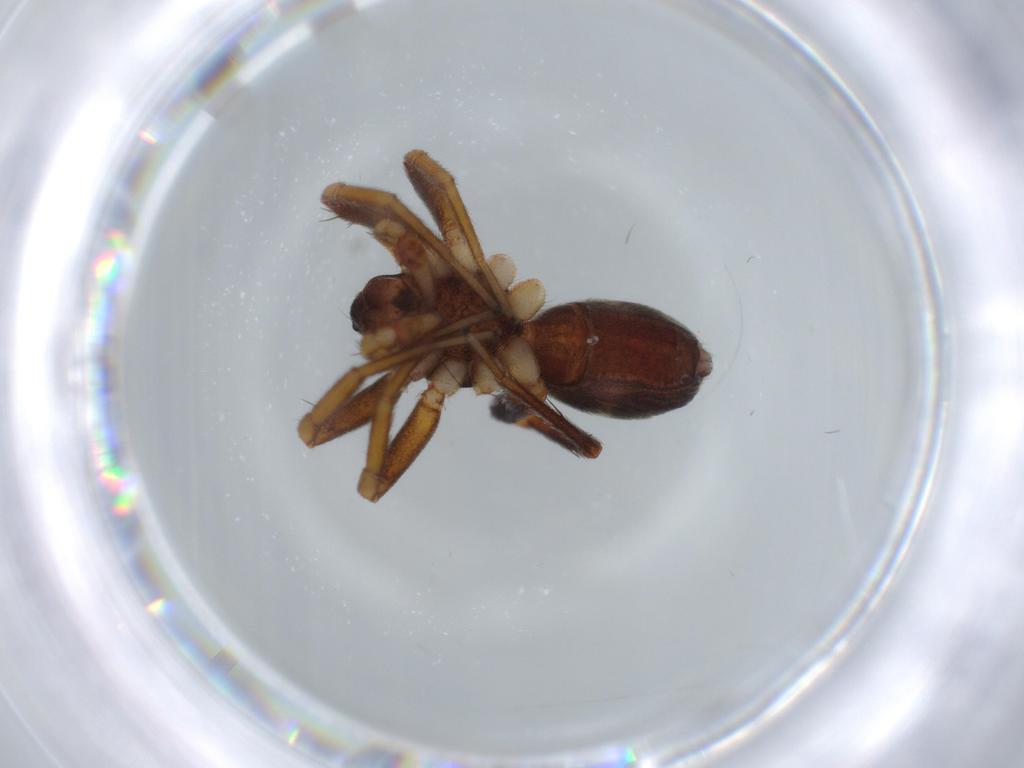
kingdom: Animalia
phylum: Arthropoda
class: Arachnida
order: Araneae
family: Corinnidae
